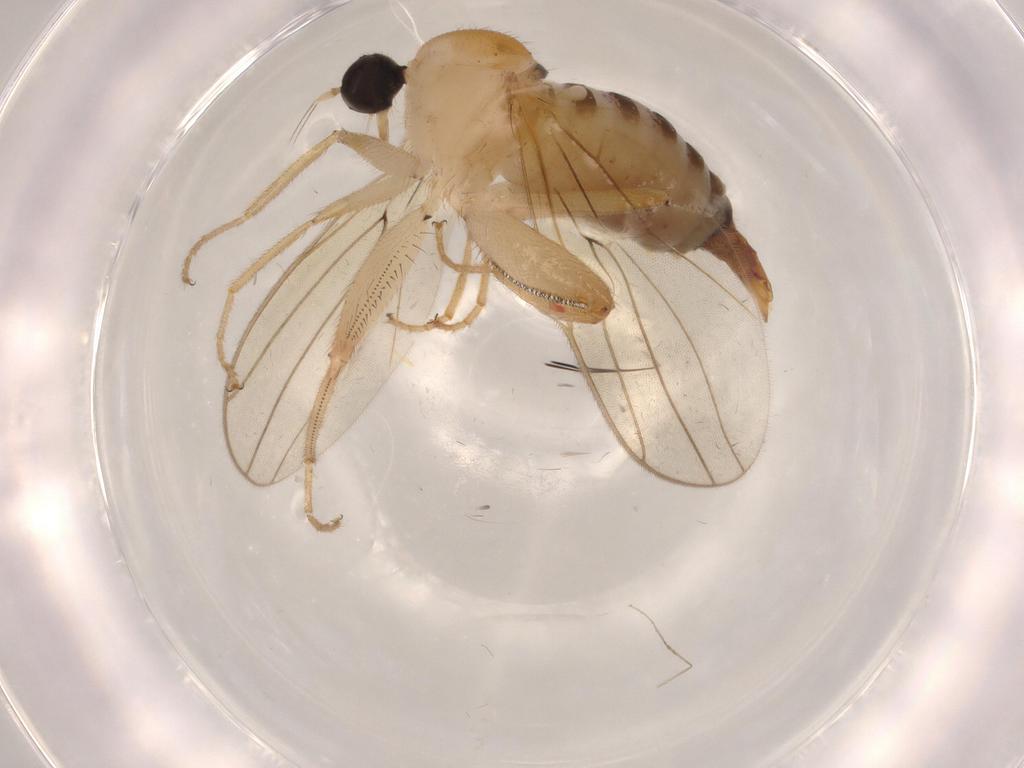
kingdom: Animalia
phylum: Arthropoda
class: Insecta
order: Diptera
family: Hybotidae
